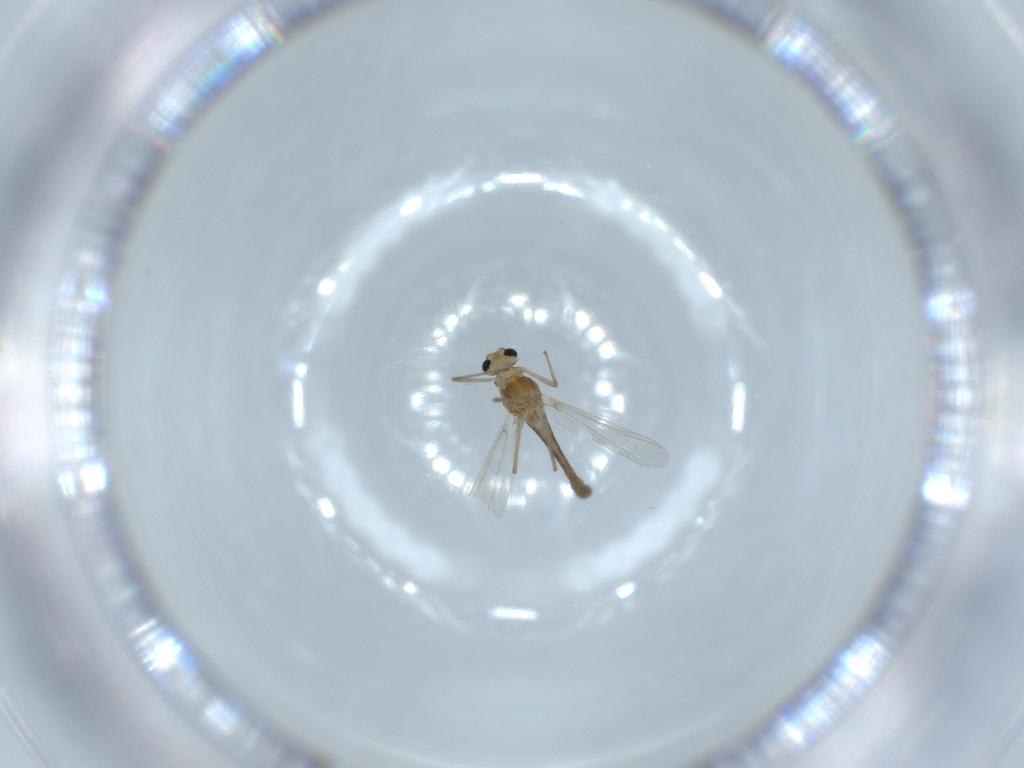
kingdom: Animalia
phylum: Arthropoda
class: Insecta
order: Diptera
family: Chironomidae
